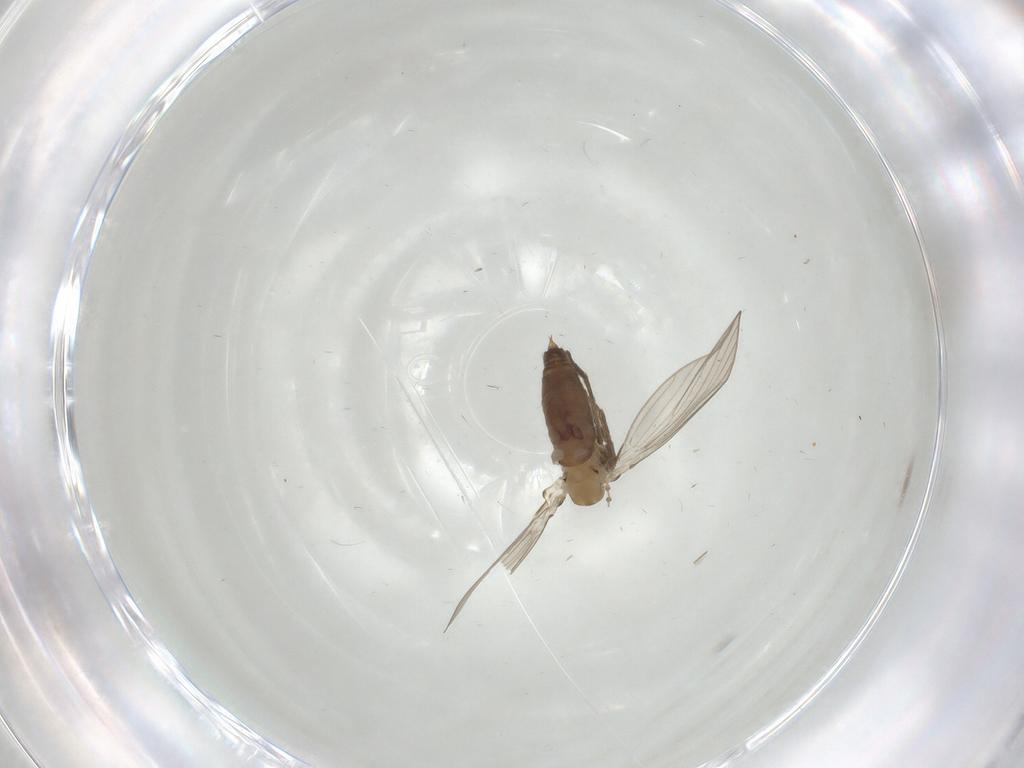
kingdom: Animalia
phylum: Arthropoda
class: Insecta
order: Diptera
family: Psychodidae
